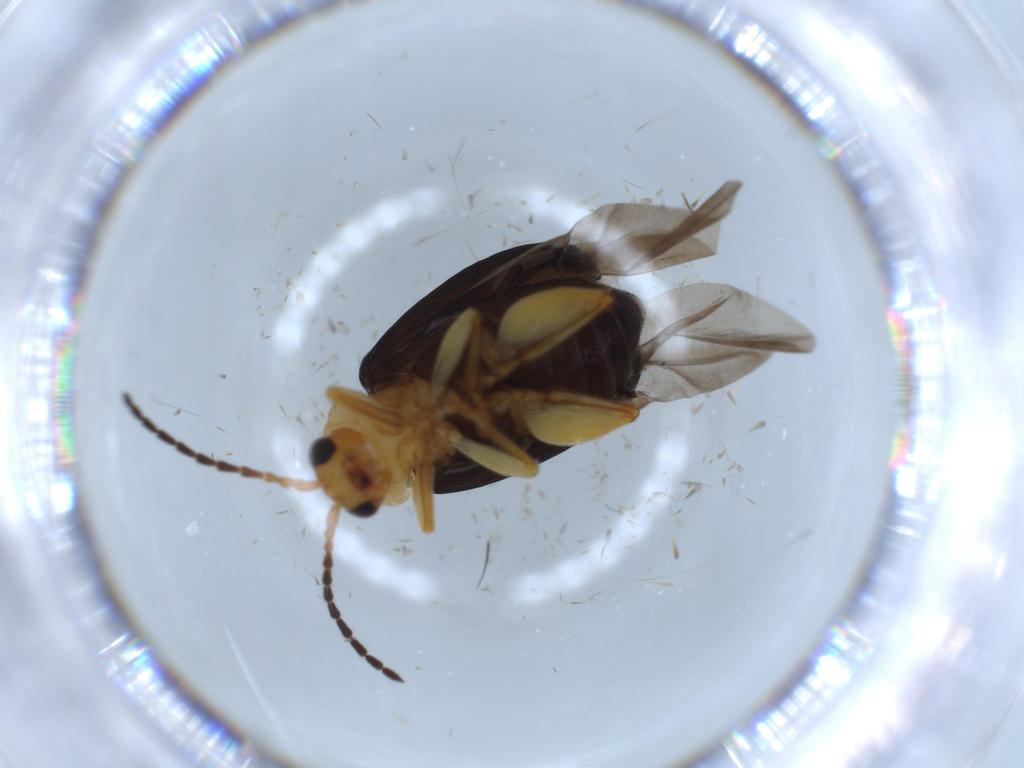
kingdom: Animalia
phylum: Arthropoda
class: Insecta
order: Coleoptera
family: Chrysomelidae
